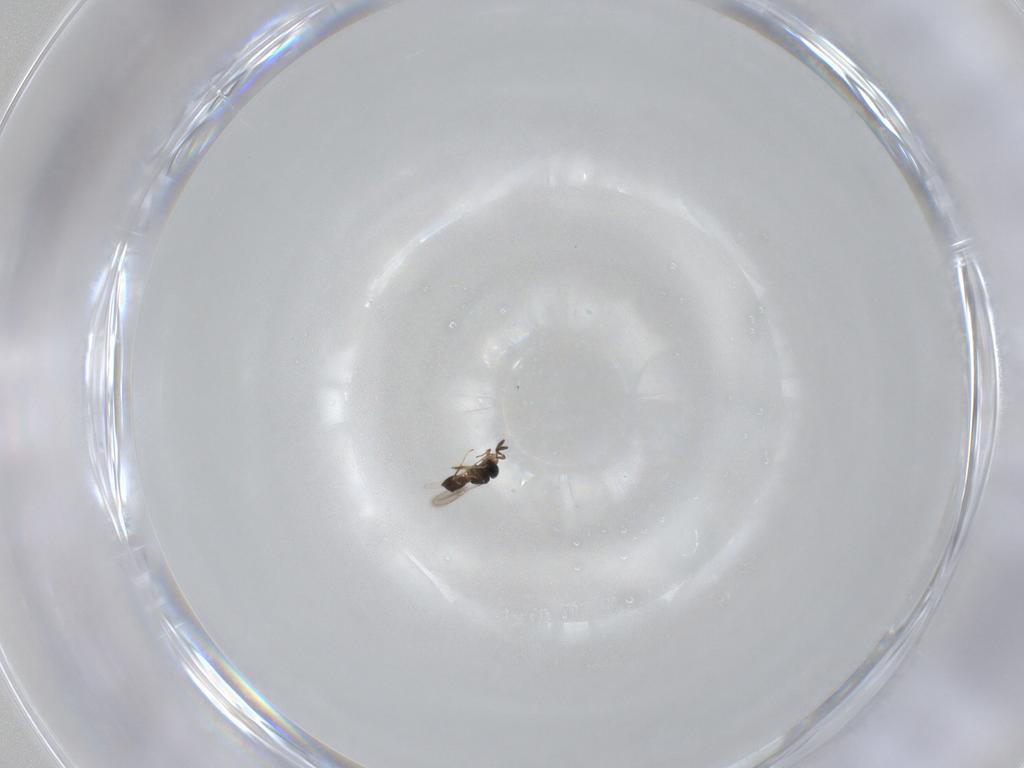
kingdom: Animalia
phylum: Arthropoda
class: Insecta
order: Hymenoptera
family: Scelionidae
